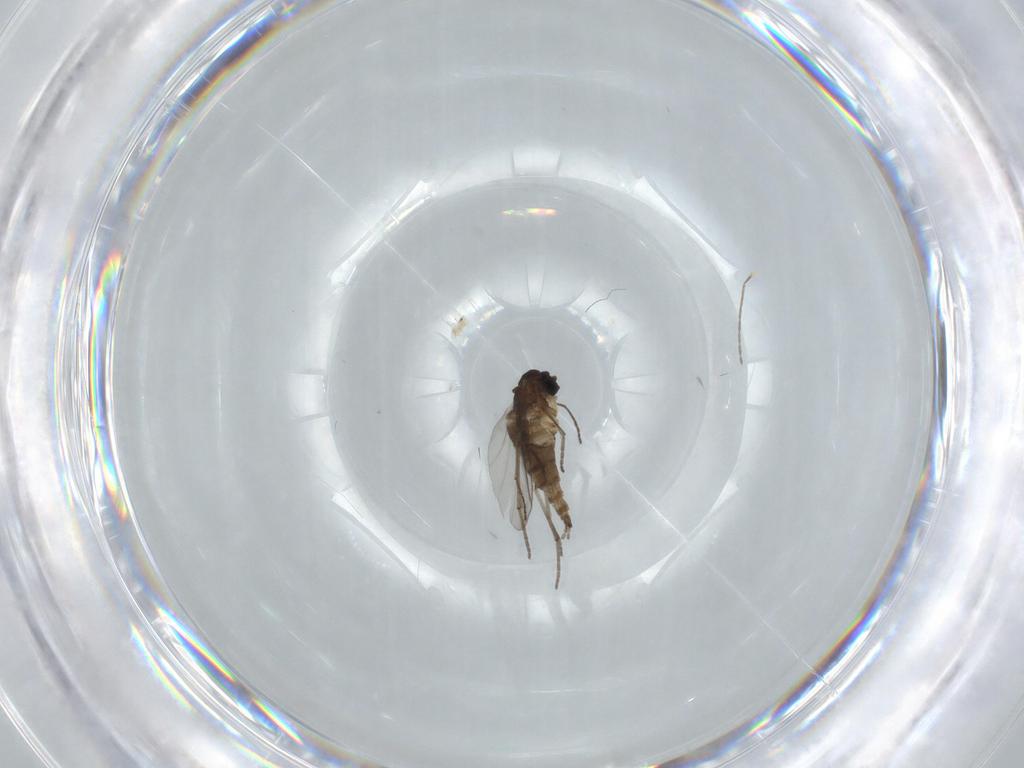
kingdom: Animalia
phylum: Arthropoda
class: Insecta
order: Diptera
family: Sciaridae
